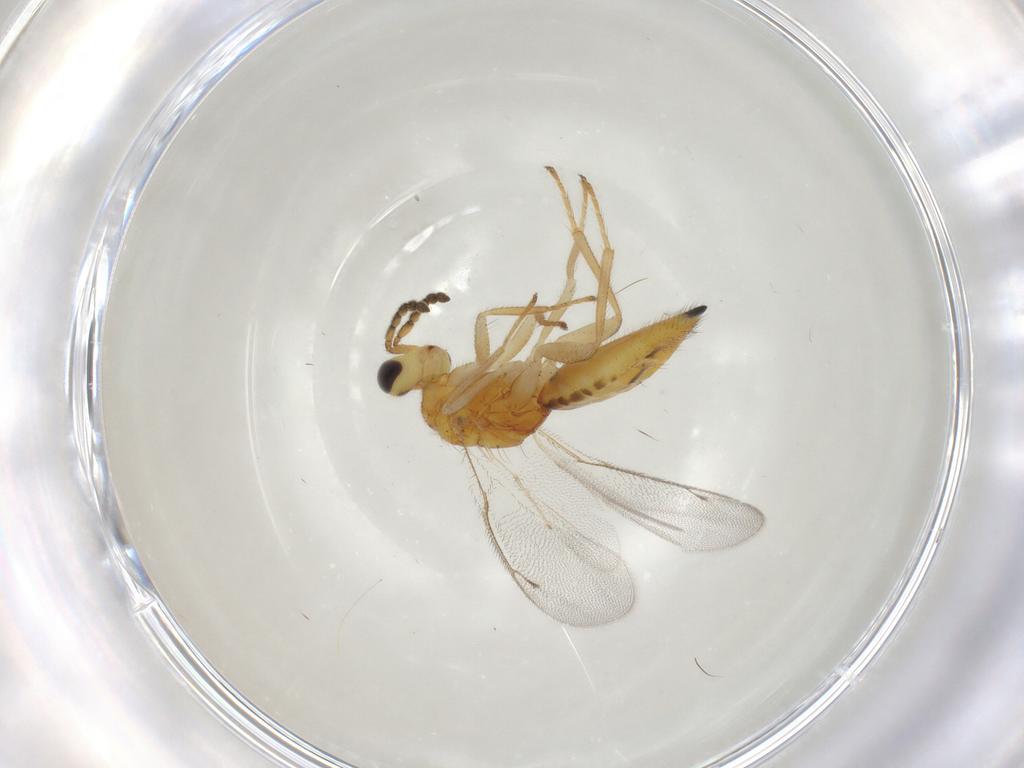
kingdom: Animalia
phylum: Arthropoda
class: Insecta
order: Hymenoptera
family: Eulophidae
